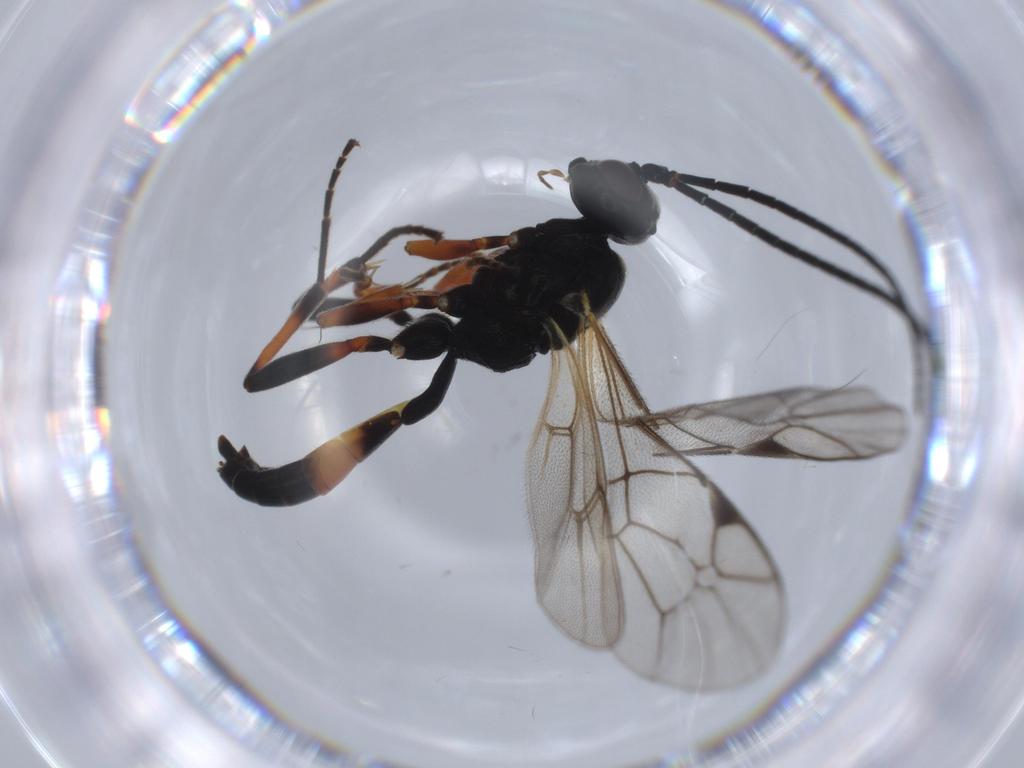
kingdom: Animalia
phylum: Arthropoda
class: Insecta
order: Hymenoptera
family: Ichneumonidae
